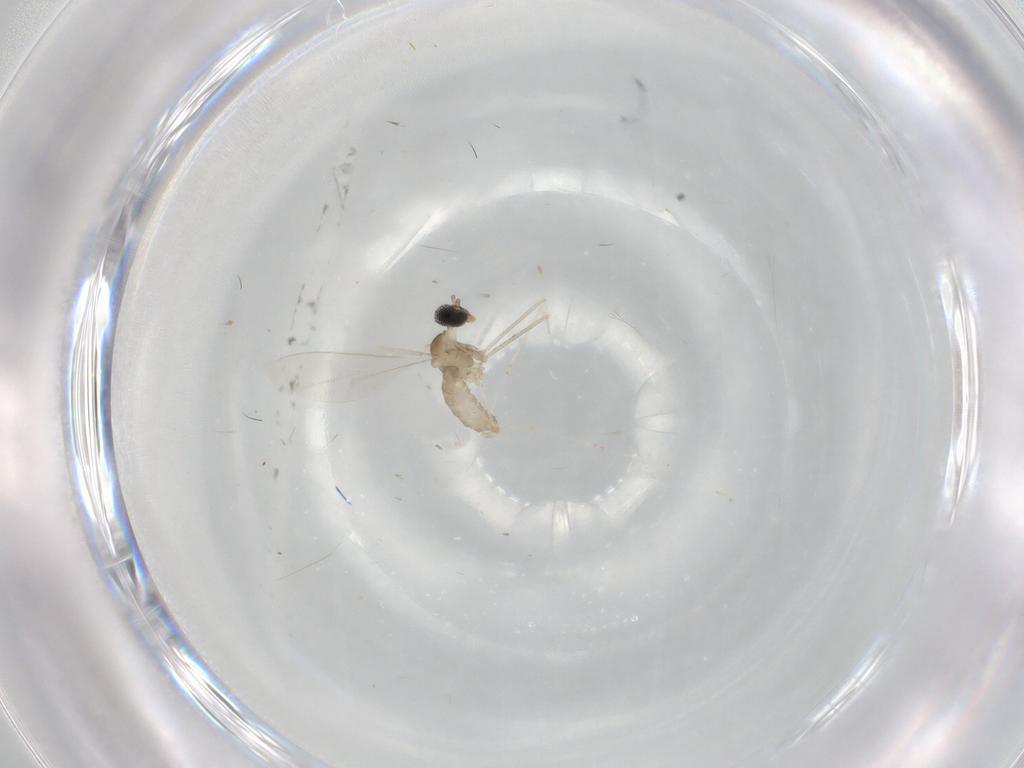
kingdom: Animalia
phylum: Arthropoda
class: Insecta
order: Diptera
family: Cecidomyiidae
